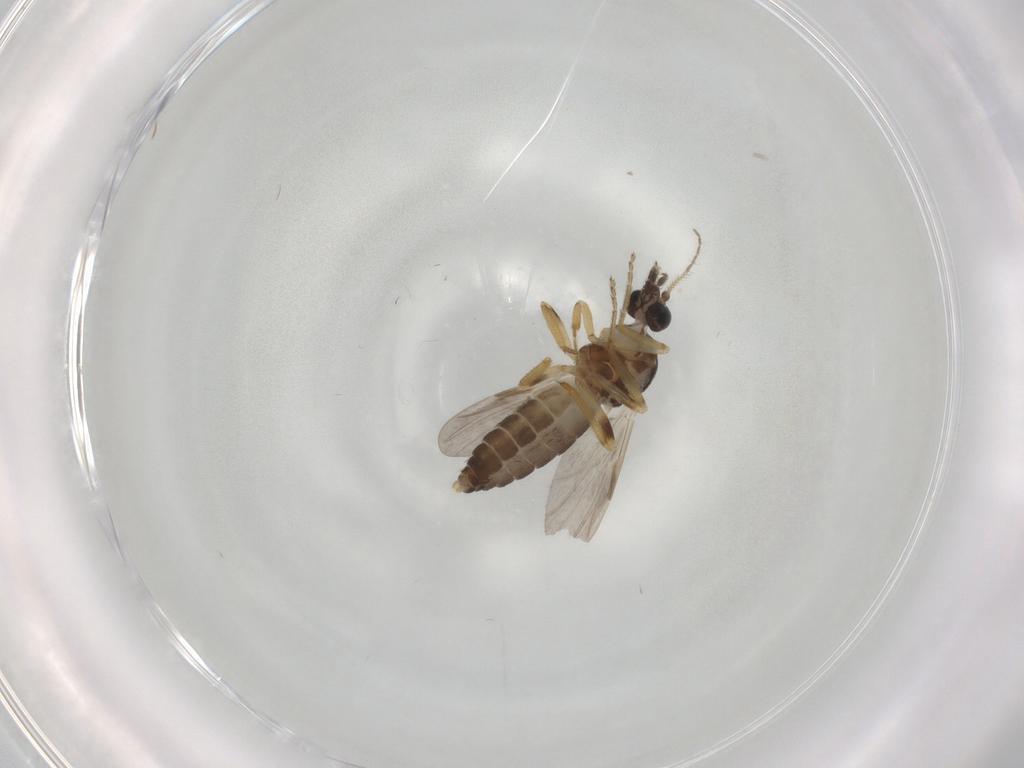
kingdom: Animalia
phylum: Arthropoda
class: Insecta
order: Diptera
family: Ceratopogonidae
